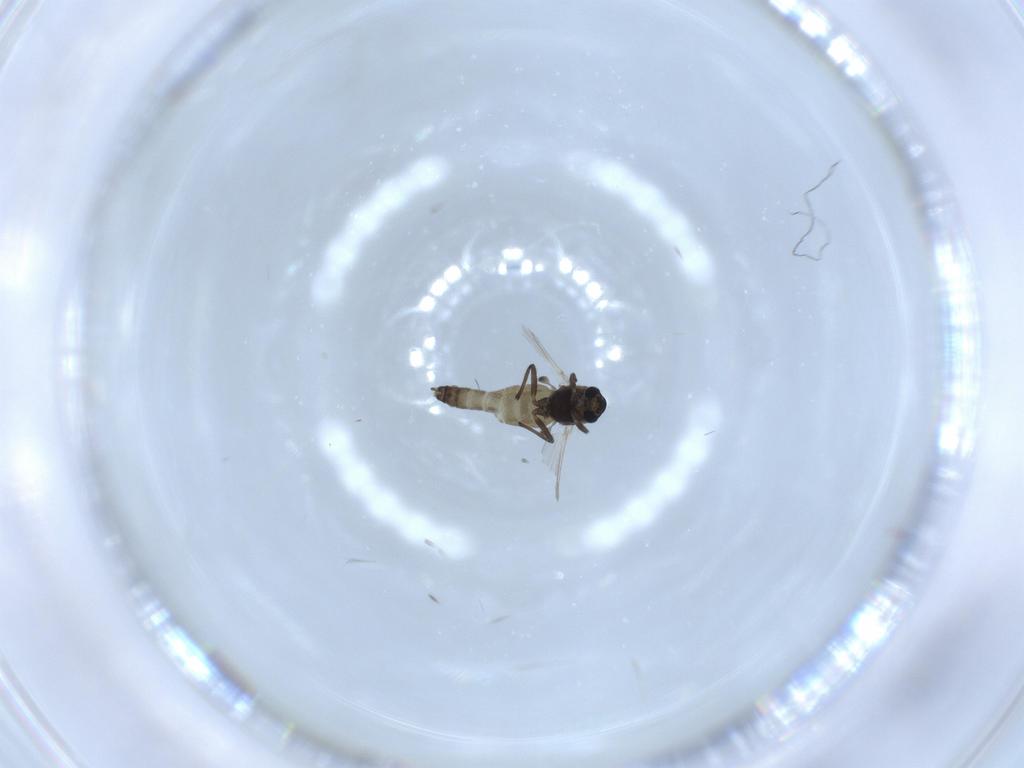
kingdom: Animalia
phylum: Arthropoda
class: Insecta
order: Diptera
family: Chironomidae
